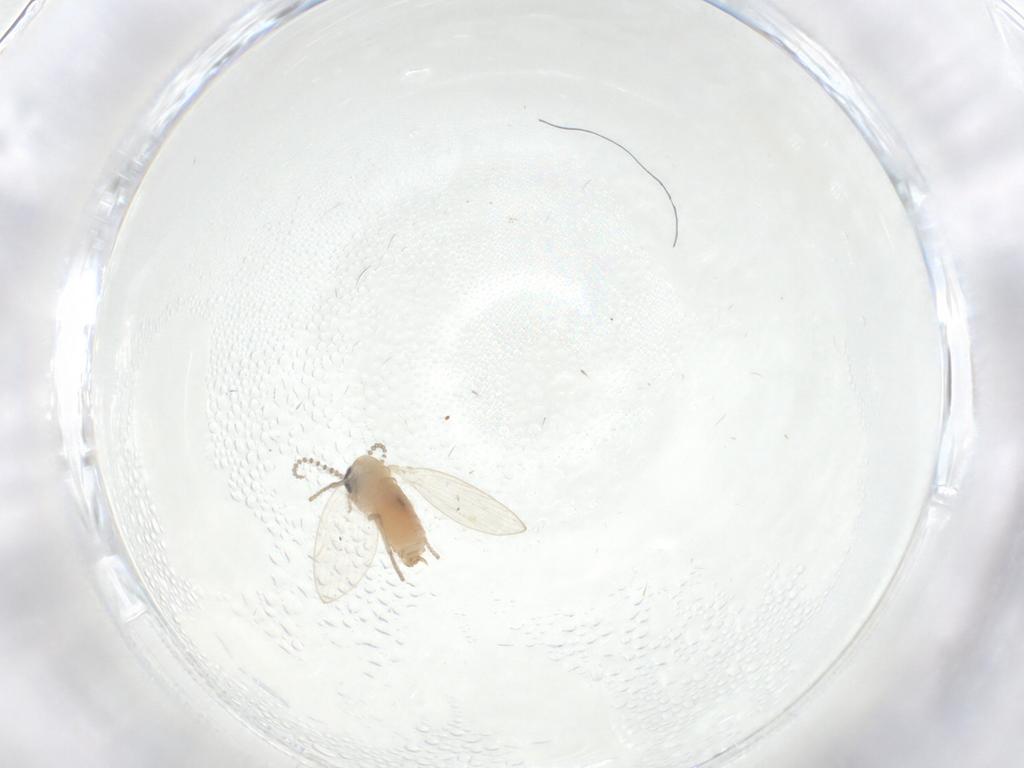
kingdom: Animalia
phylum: Arthropoda
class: Insecta
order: Diptera
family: Psychodidae
